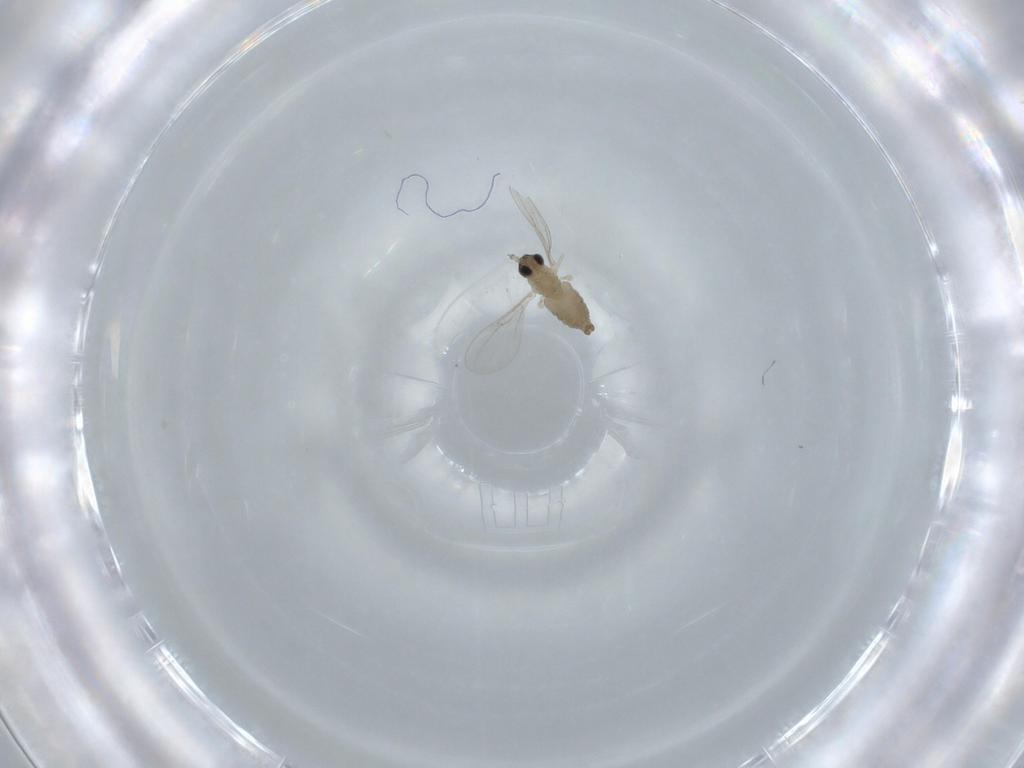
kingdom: Animalia
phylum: Arthropoda
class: Insecta
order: Diptera
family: Cecidomyiidae
